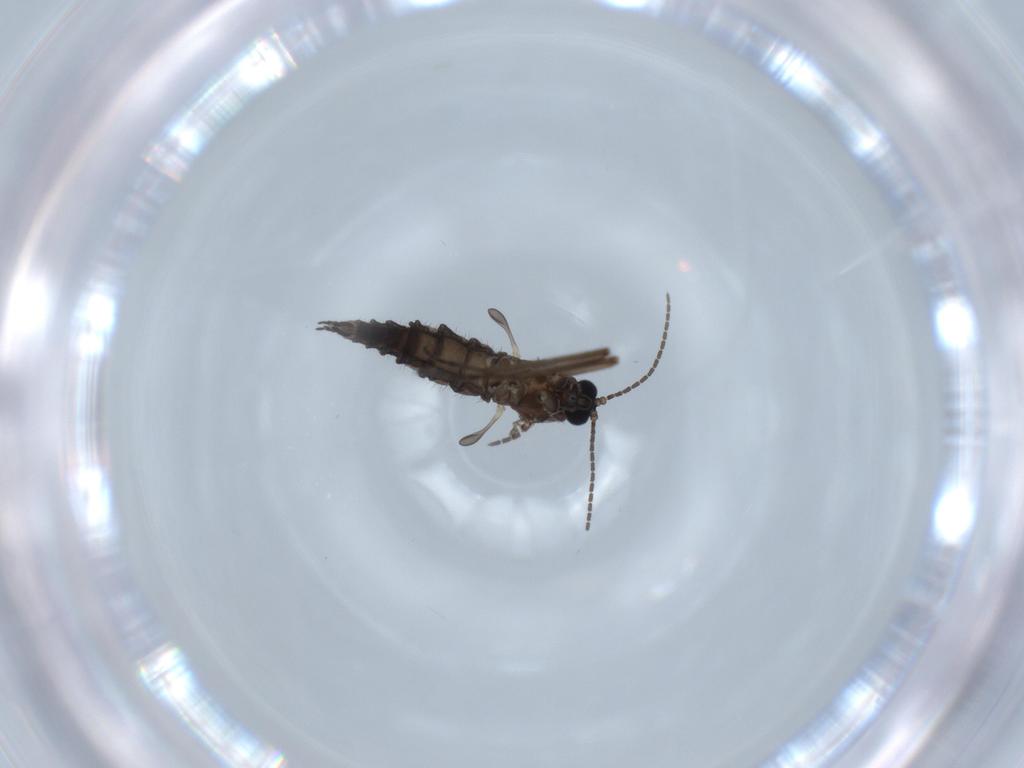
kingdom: Animalia
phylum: Arthropoda
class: Insecta
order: Diptera
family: Sciaridae
